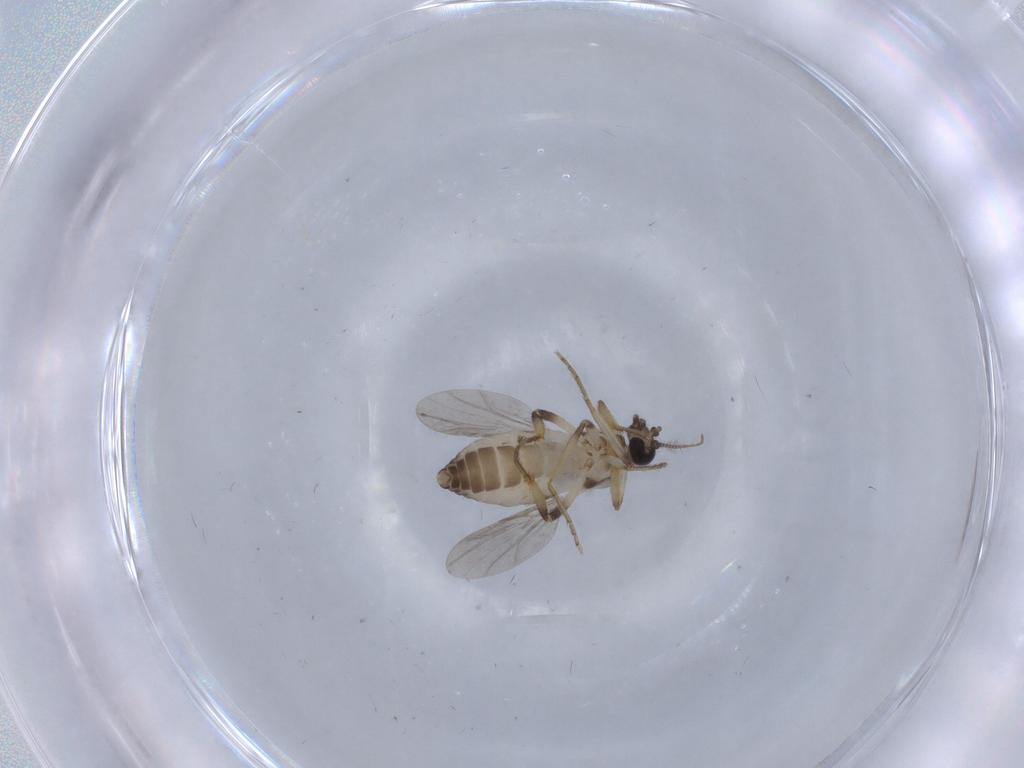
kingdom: Animalia
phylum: Arthropoda
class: Insecta
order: Diptera
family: Ceratopogonidae
